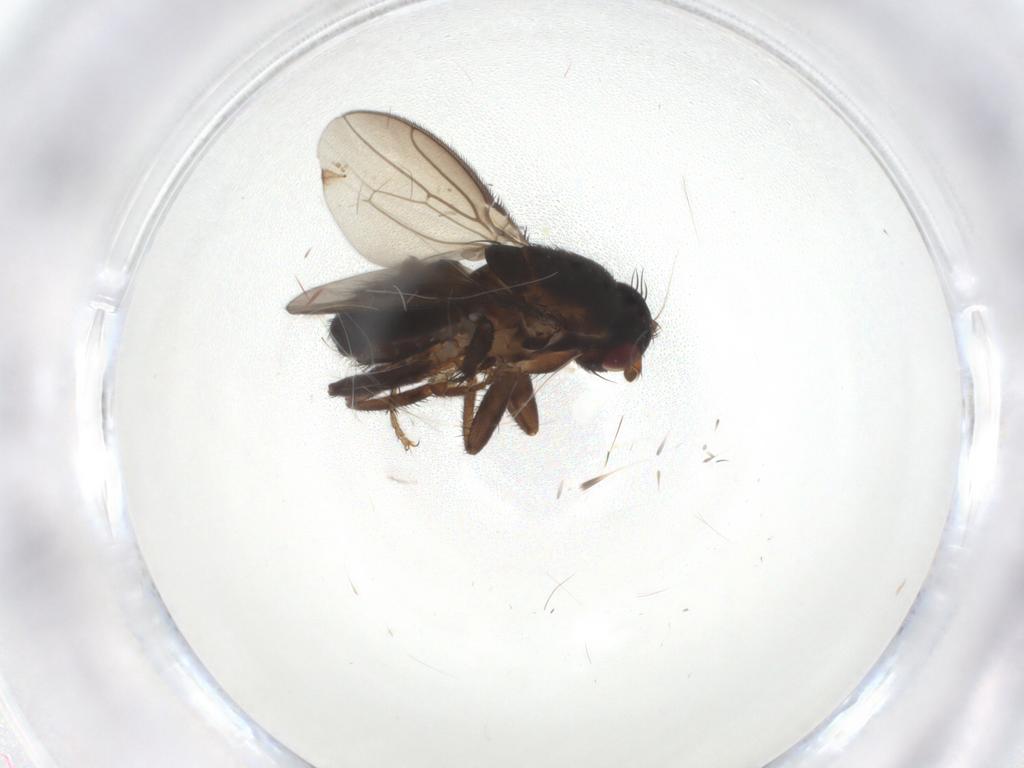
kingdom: Animalia
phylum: Arthropoda
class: Insecta
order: Diptera
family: Sphaeroceridae
